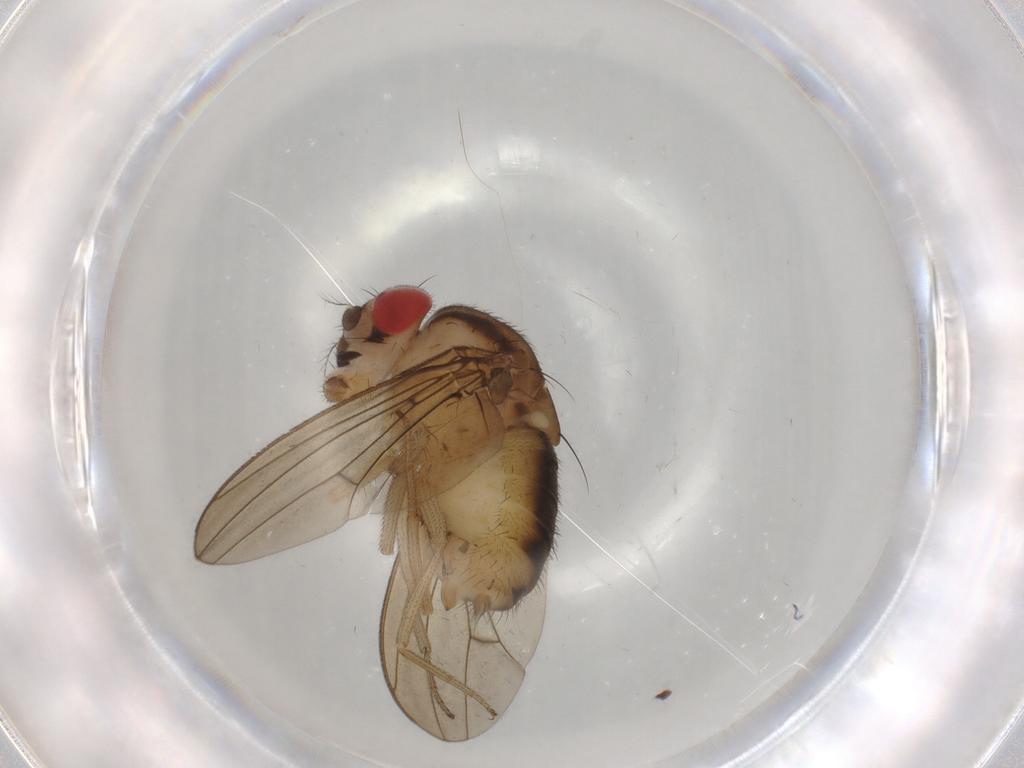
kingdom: Animalia
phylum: Arthropoda
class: Insecta
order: Diptera
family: Drosophilidae
